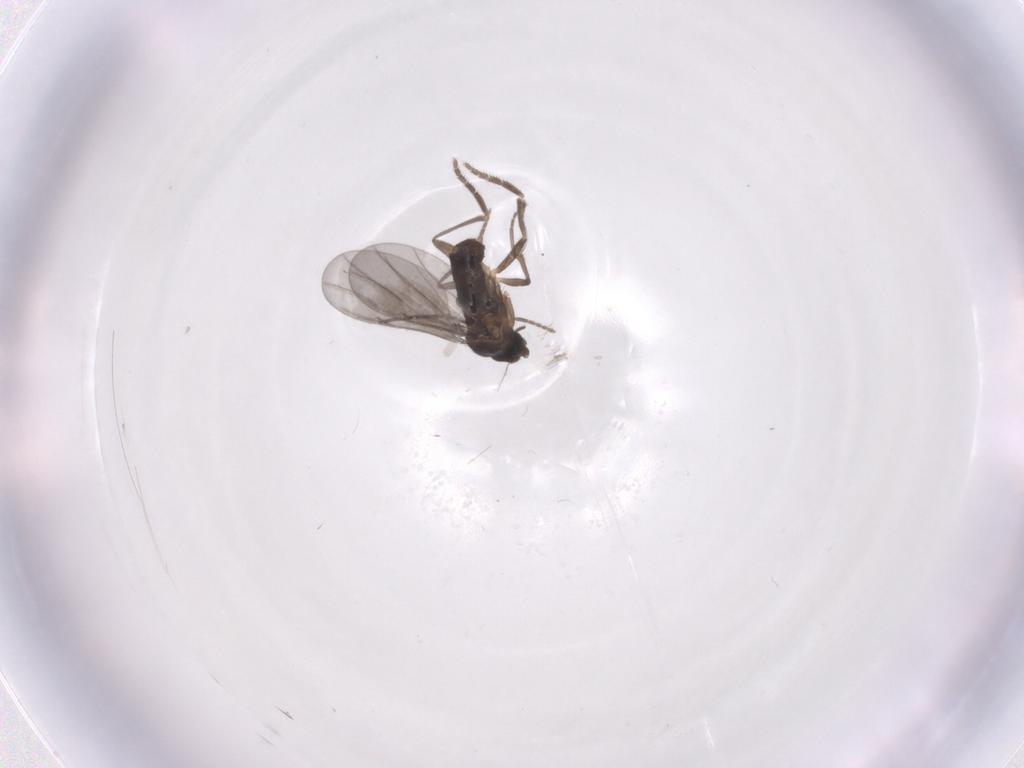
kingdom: Animalia
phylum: Arthropoda
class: Insecta
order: Diptera
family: Phoridae
